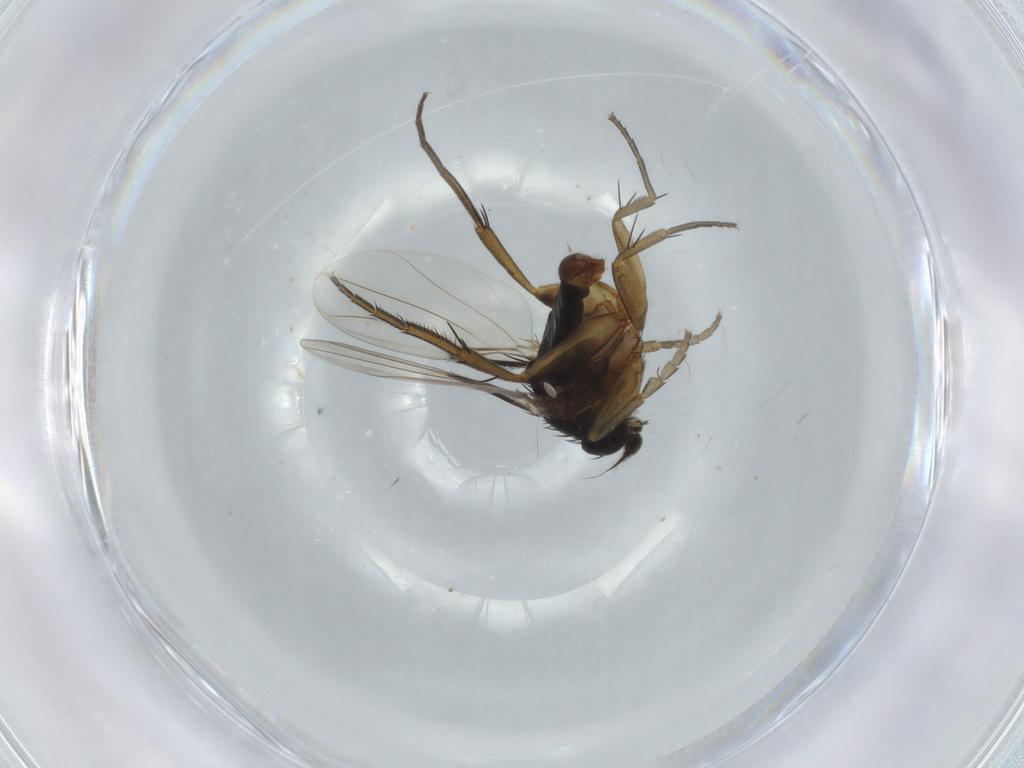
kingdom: Animalia
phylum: Arthropoda
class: Insecta
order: Diptera
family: Phoridae
